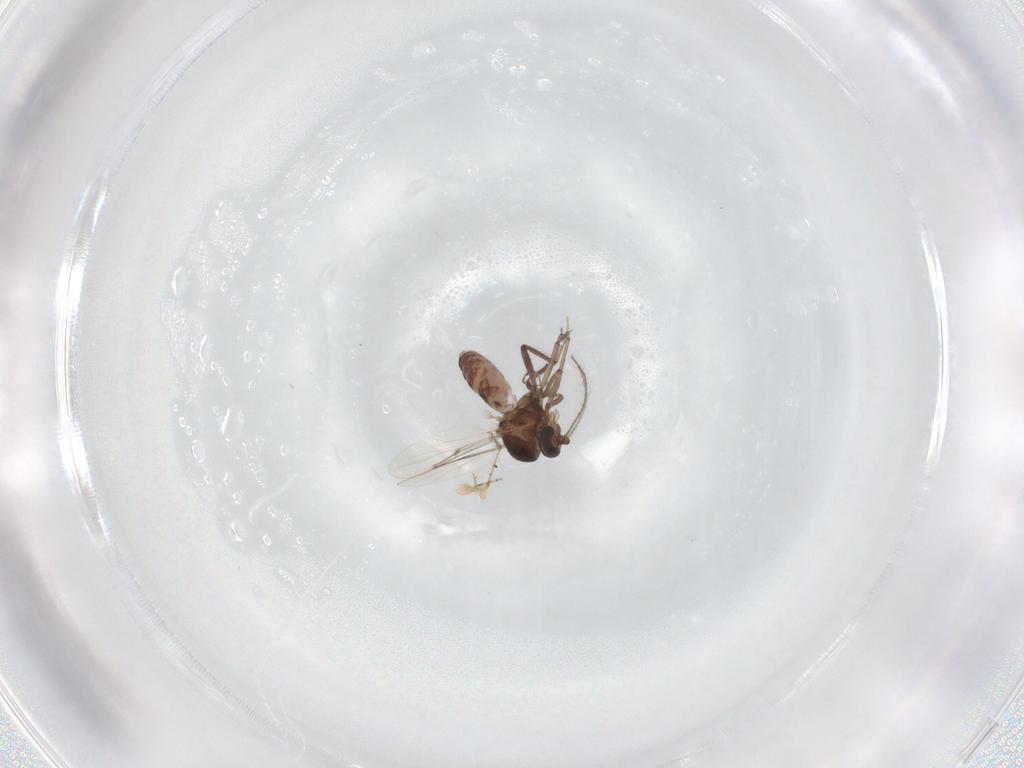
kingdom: Animalia
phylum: Arthropoda
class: Insecta
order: Diptera
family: Ceratopogonidae
